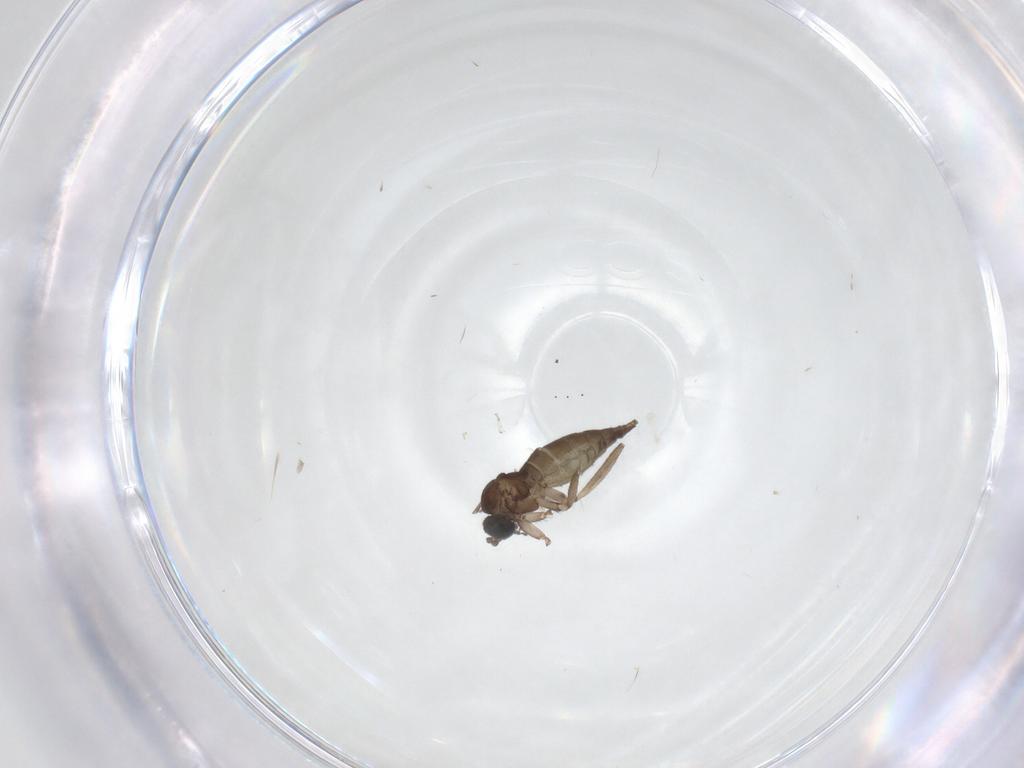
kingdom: Animalia
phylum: Arthropoda
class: Insecta
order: Diptera
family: Sciaridae
